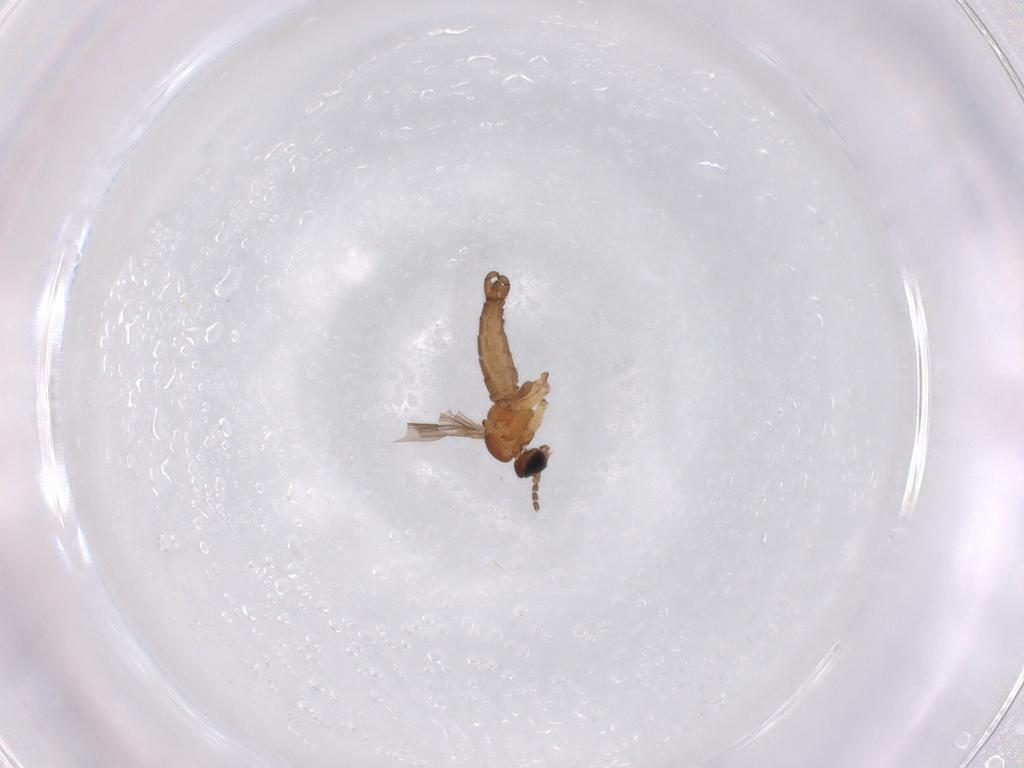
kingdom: Animalia
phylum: Arthropoda
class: Insecta
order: Diptera
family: Sciaridae
